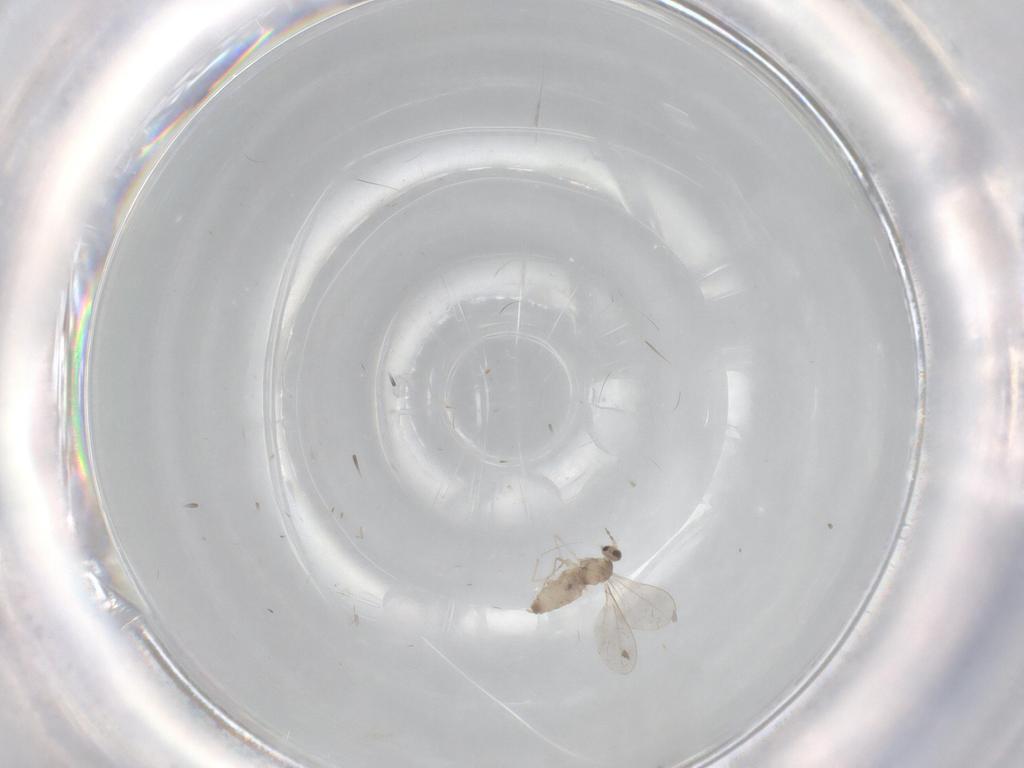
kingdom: Animalia
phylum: Arthropoda
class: Insecta
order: Diptera
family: Cecidomyiidae
